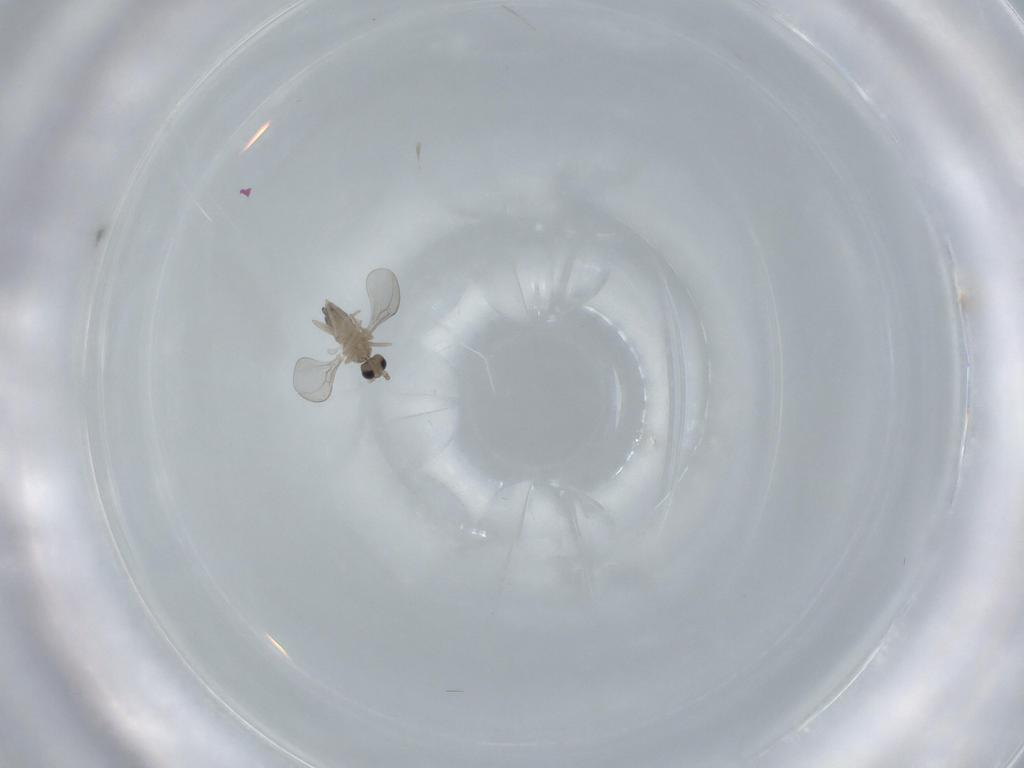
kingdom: Animalia
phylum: Arthropoda
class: Insecta
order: Diptera
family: Cecidomyiidae
